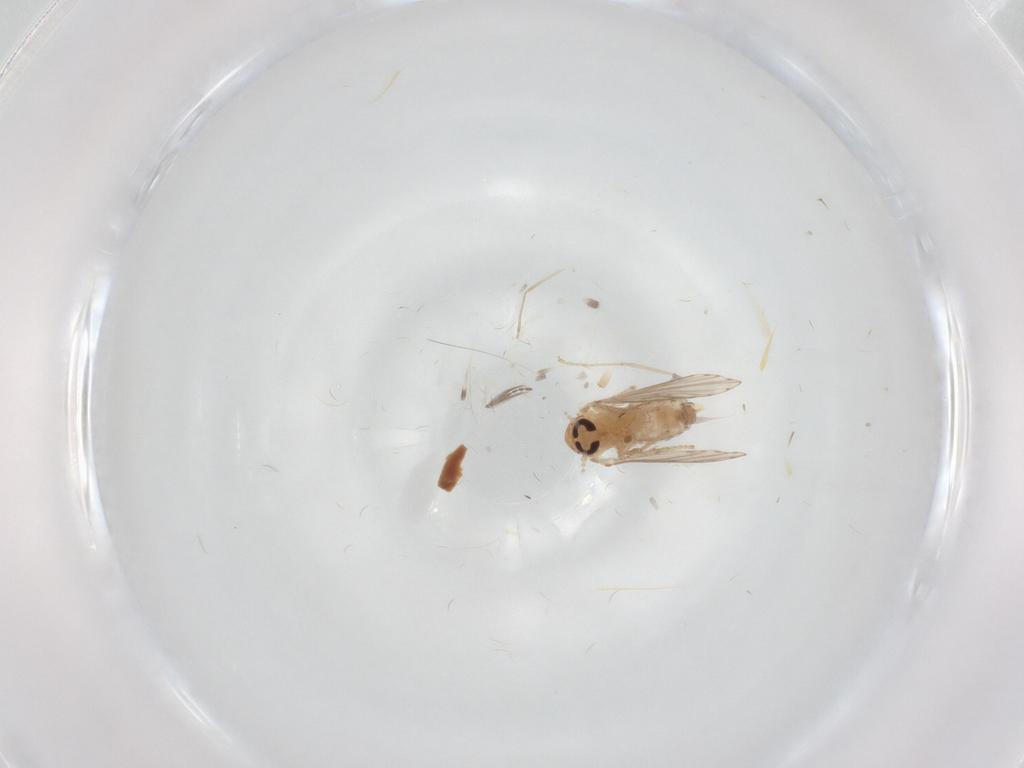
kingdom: Animalia
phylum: Arthropoda
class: Insecta
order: Diptera
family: Psychodidae
